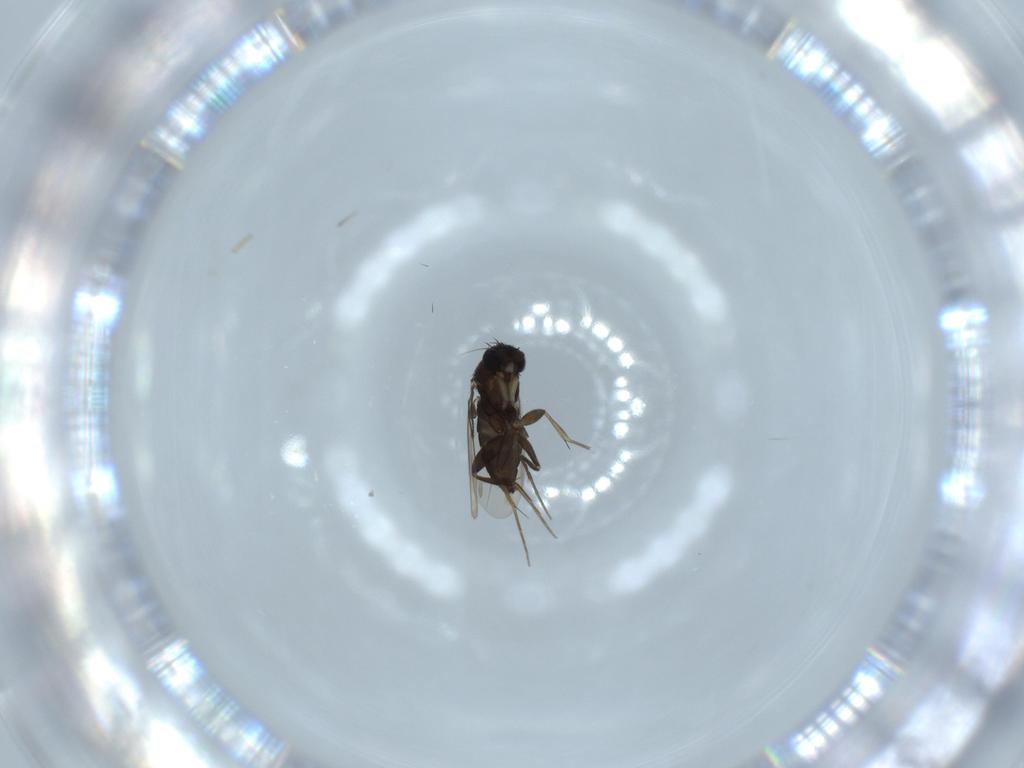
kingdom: Animalia
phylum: Arthropoda
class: Insecta
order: Diptera
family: Phoridae
